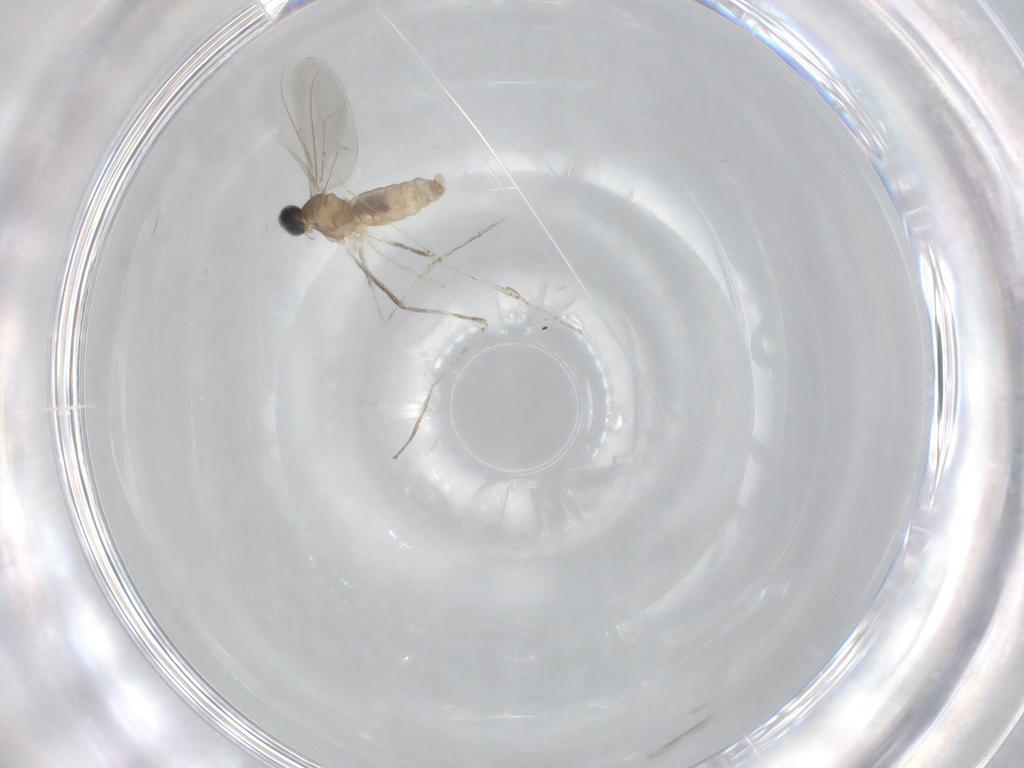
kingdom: Animalia
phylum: Arthropoda
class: Insecta
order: Diptera
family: Cecidomyiidae
